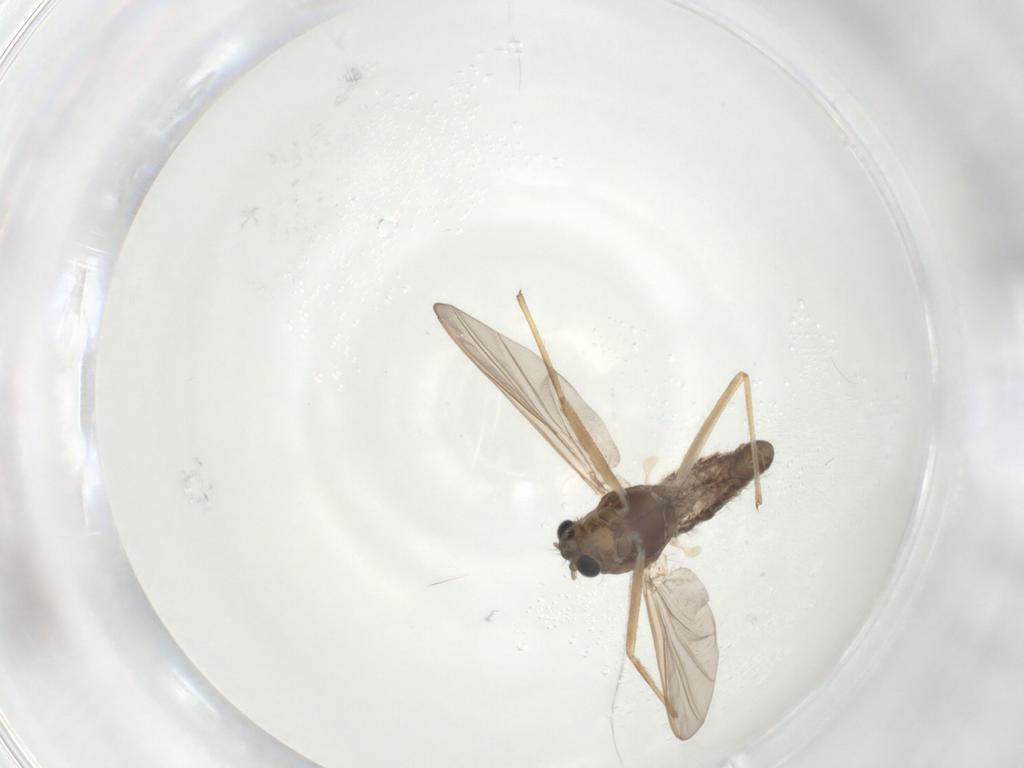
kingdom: Animalia
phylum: Arthropoda
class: Insecta
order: Diptera
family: Chironomidae
